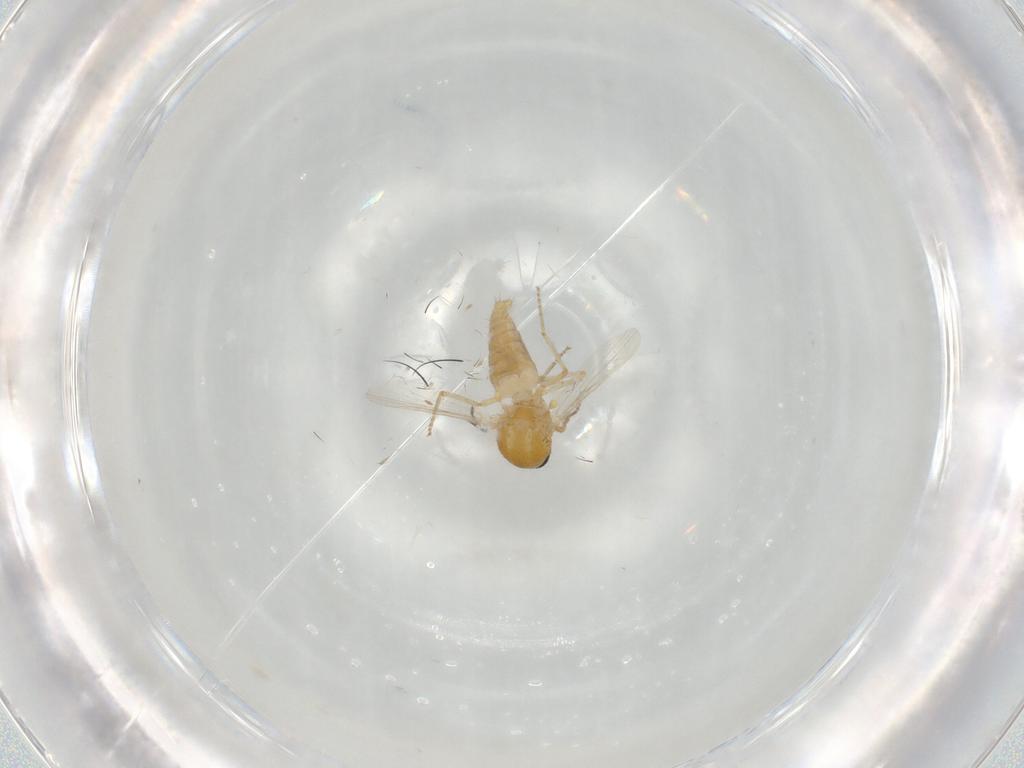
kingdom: Animalia
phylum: Arthropoda
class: Insecta
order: Diptera
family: Ceratopogonidae
